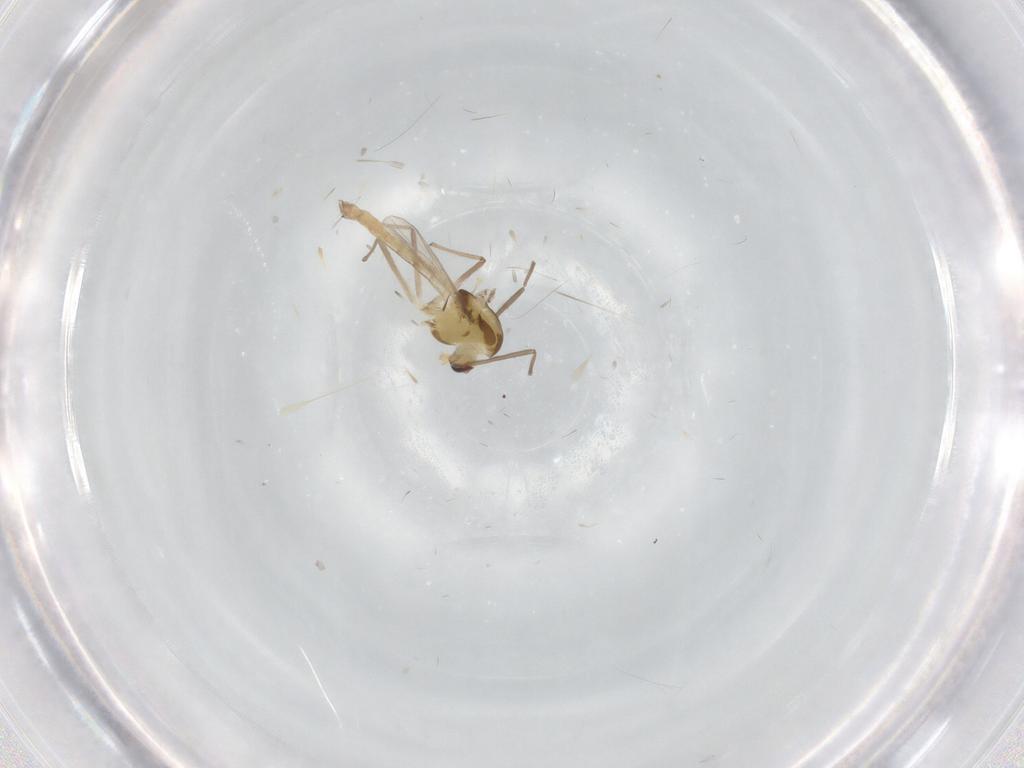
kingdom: Animalia
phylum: Arthropoda
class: Insecta
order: Diptera
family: Chironomidae
